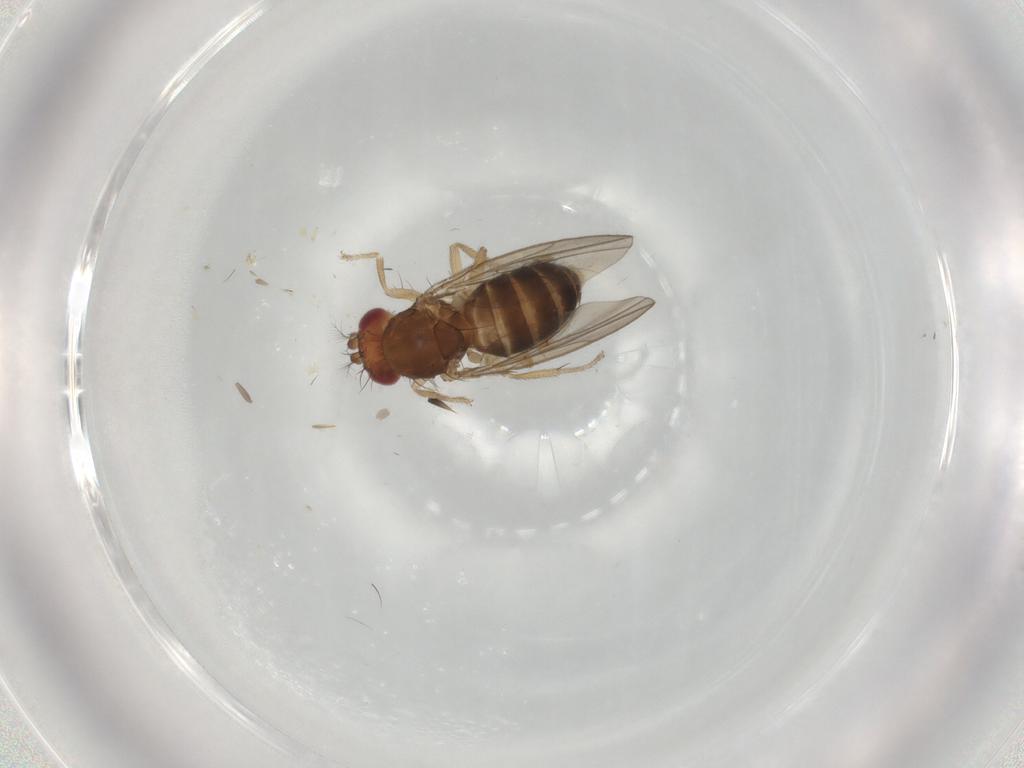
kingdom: Animalia
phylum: Arthropoda
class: Insecta
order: Diptera
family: Drosophilidae
